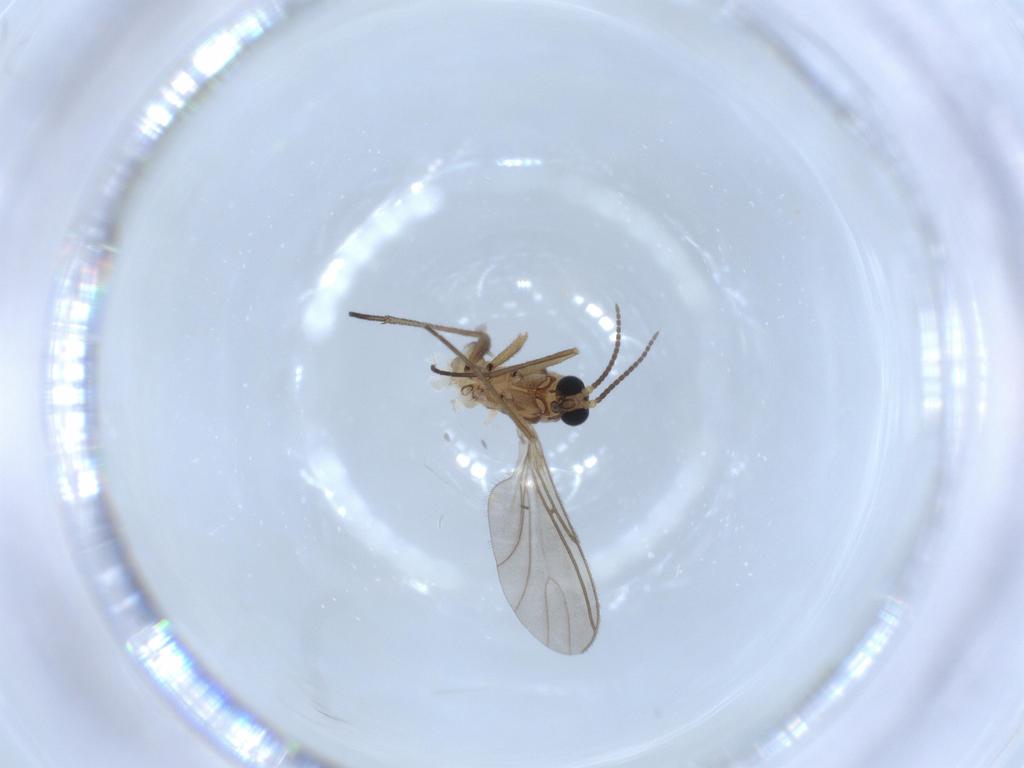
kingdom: Animalia
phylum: Arthropoda
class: Insecta
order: Diptera
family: Sciaridae
